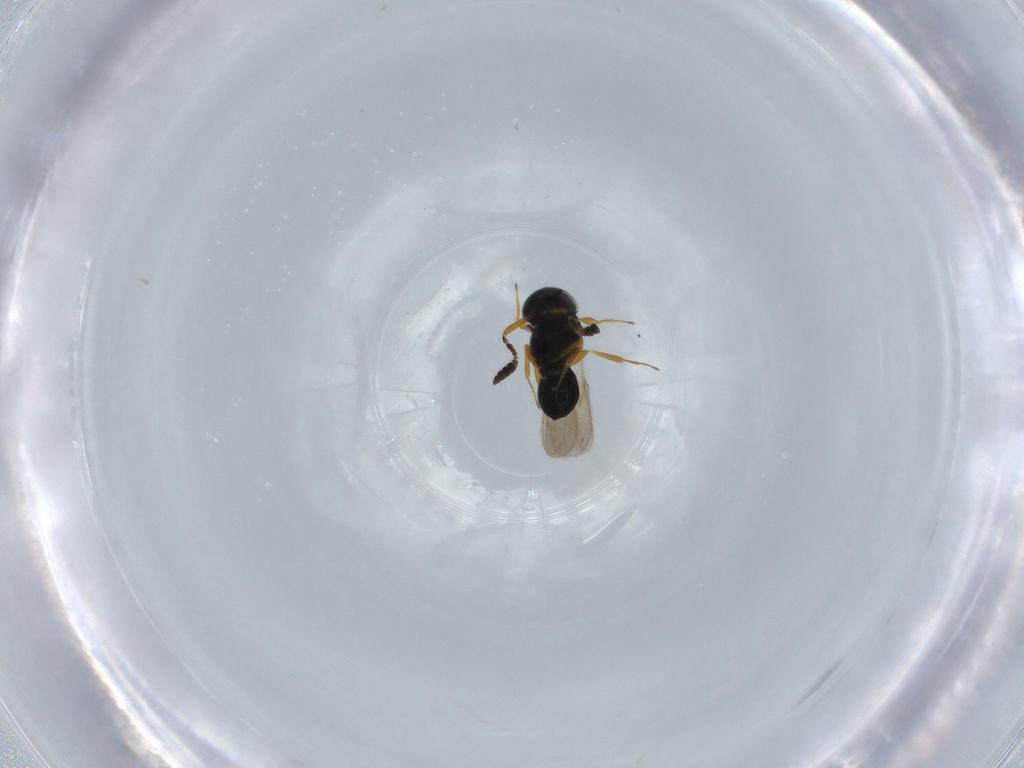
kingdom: Animalia
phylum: Arthropoda
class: Insecta
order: Hymenoptera
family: Scelionidae
